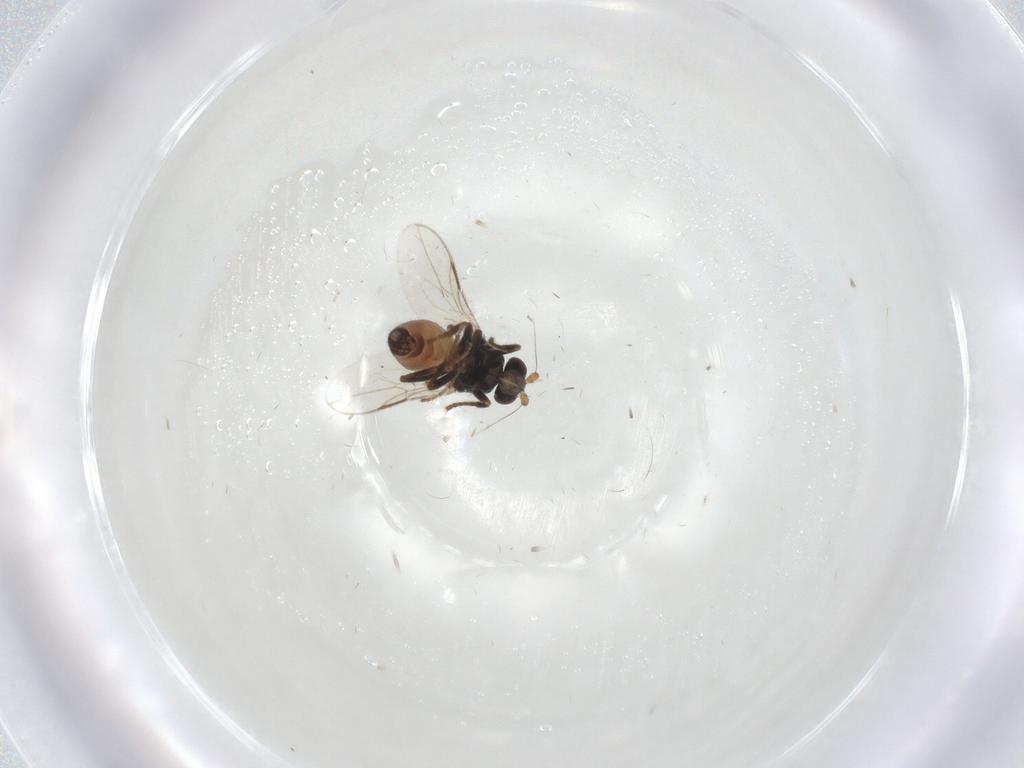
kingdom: Animalia
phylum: Arthropoda
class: Insecta
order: Diptera
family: Sphaeroceridae
